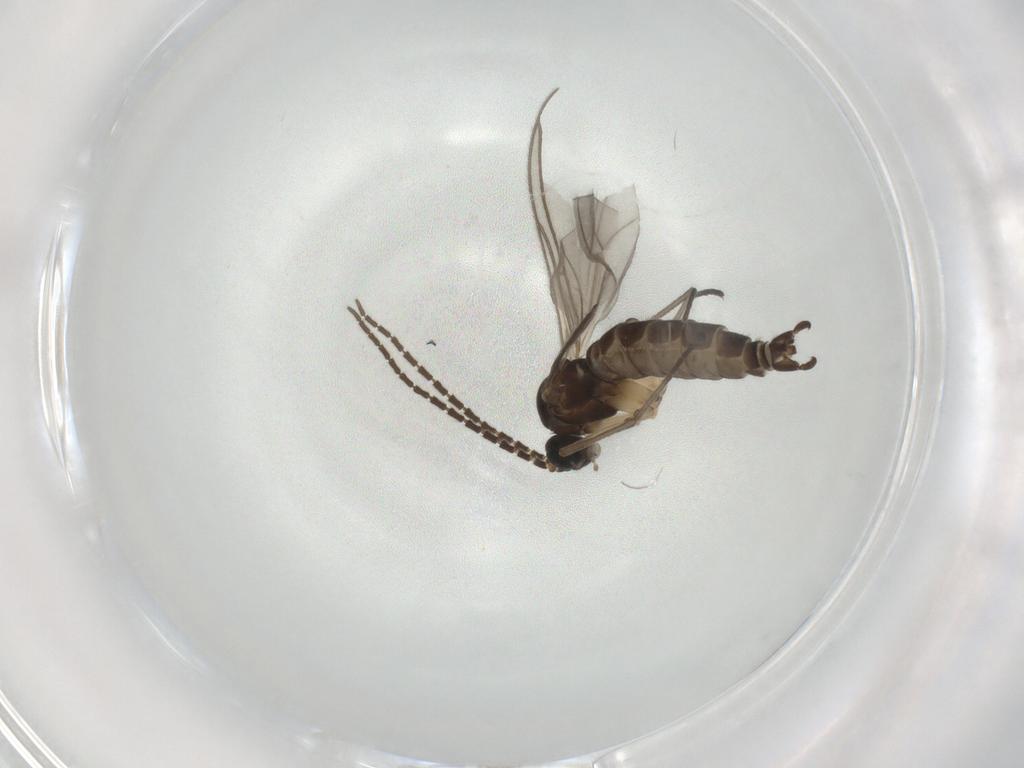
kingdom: Animalia
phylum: Arthropoda
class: Insecta
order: Diptera
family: Sciaridae
